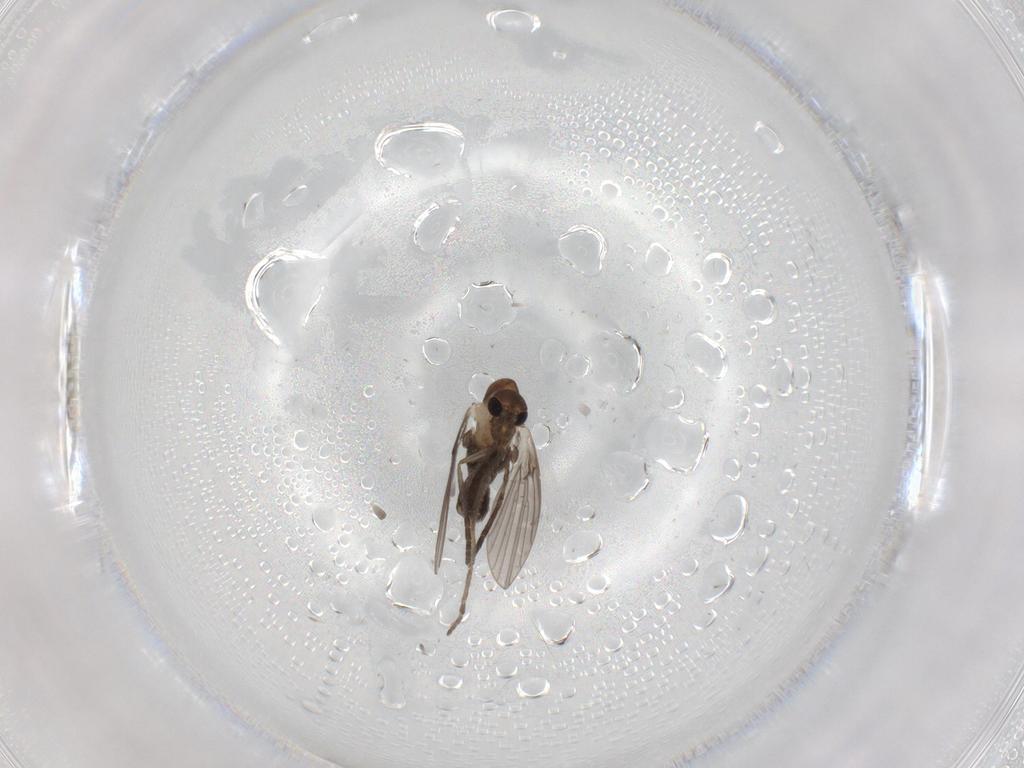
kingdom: Animalia
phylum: Arthropoda
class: Insecta
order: Diptera
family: Psychodidae
